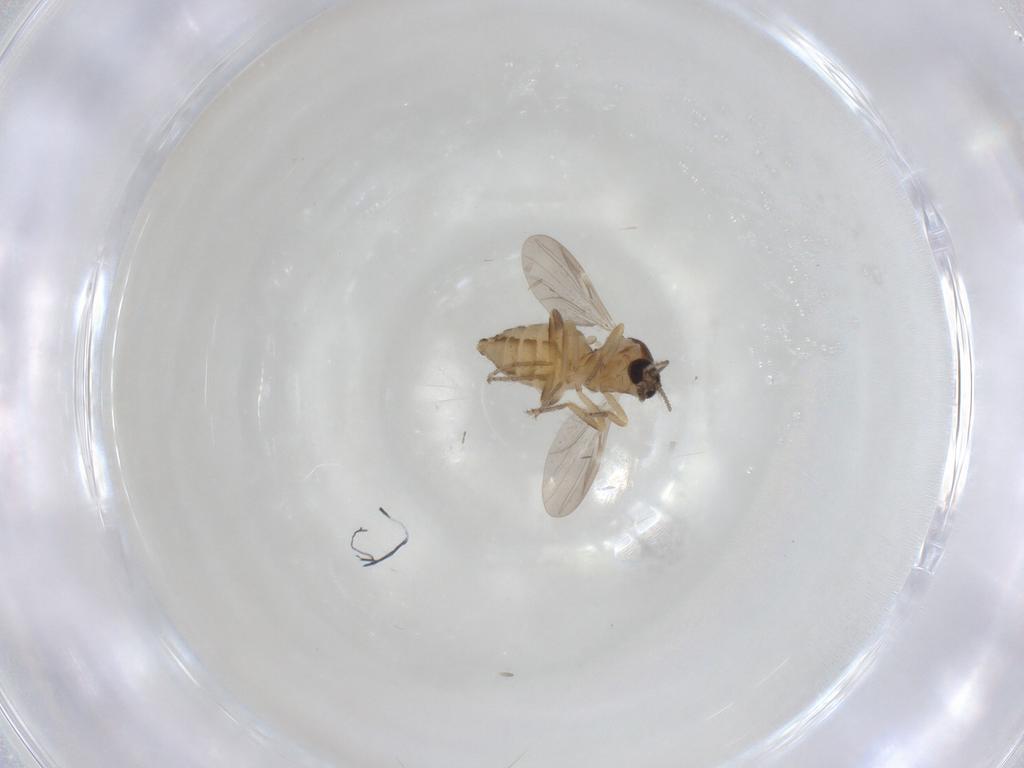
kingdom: Animalia
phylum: Arthropoda
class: Insecta
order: Diptera
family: Ceratopogonidae
